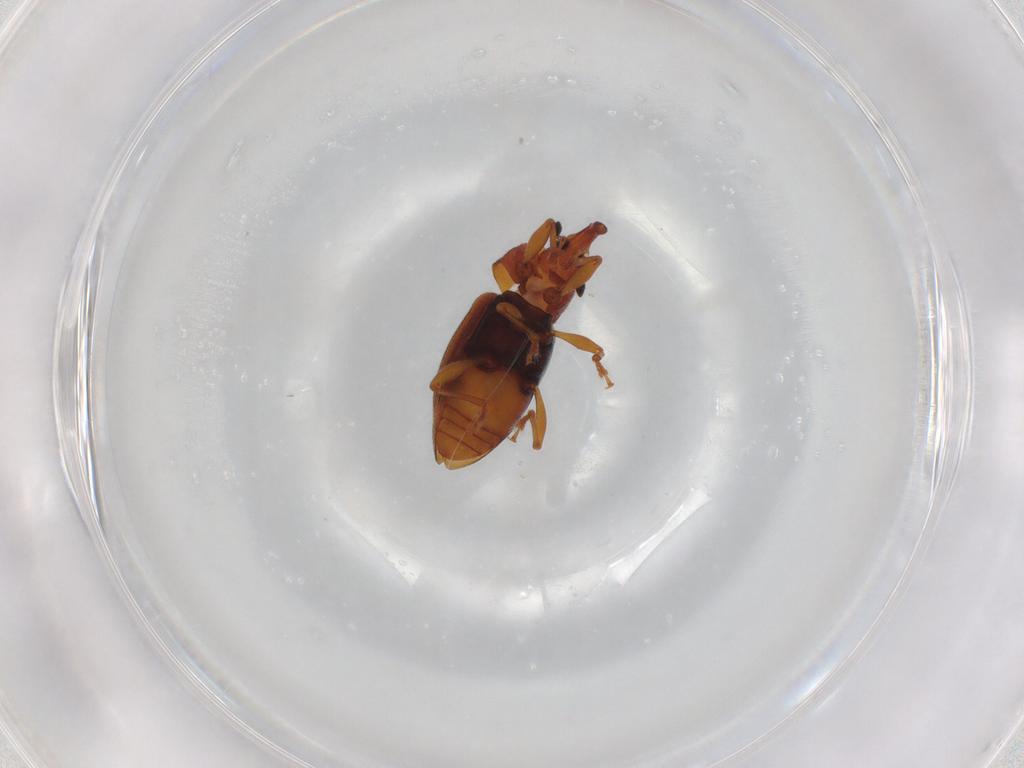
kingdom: Animalia
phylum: Arthropoda
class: Insecta
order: Coleoptera
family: Curculionidae
